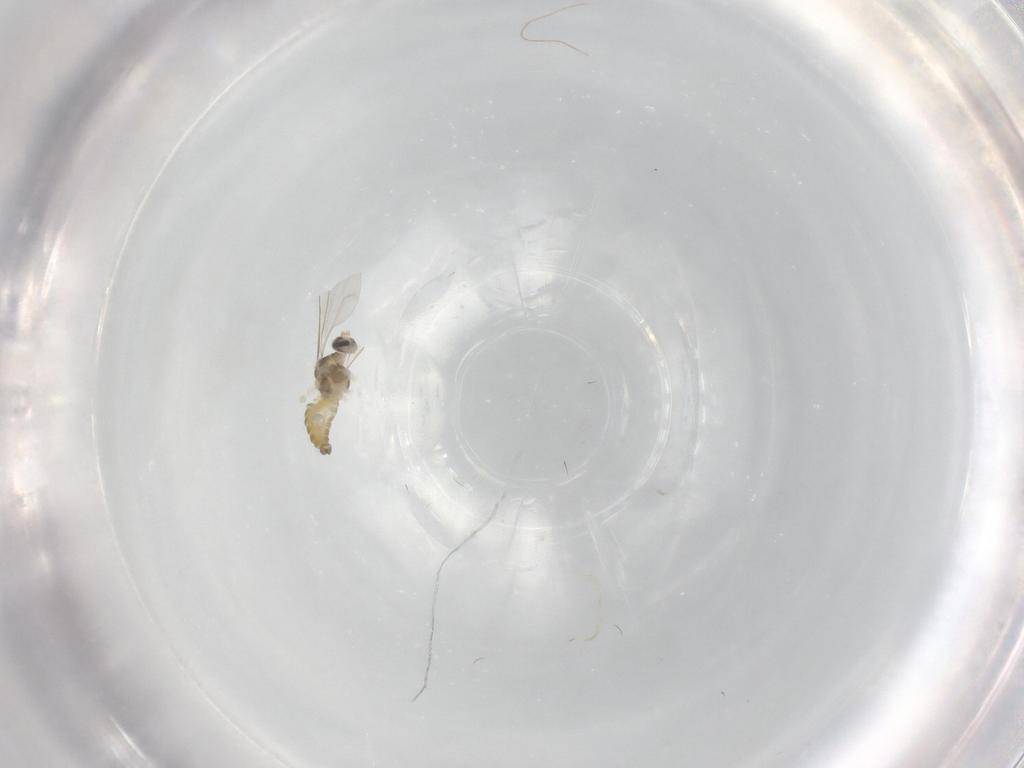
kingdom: Animalia
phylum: Arthropoda
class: Insecta
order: Diptera
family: Cecidomyiidae
